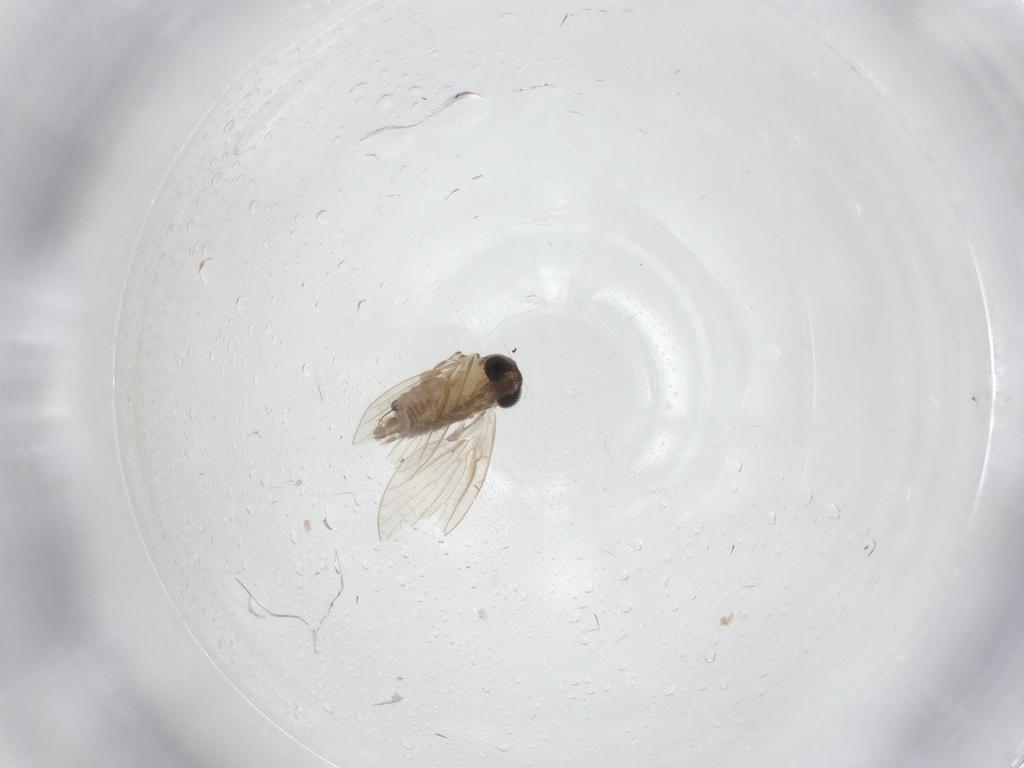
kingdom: Animalia
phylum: Arthropoda
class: Insecta
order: Diptera
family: Psychodidae
